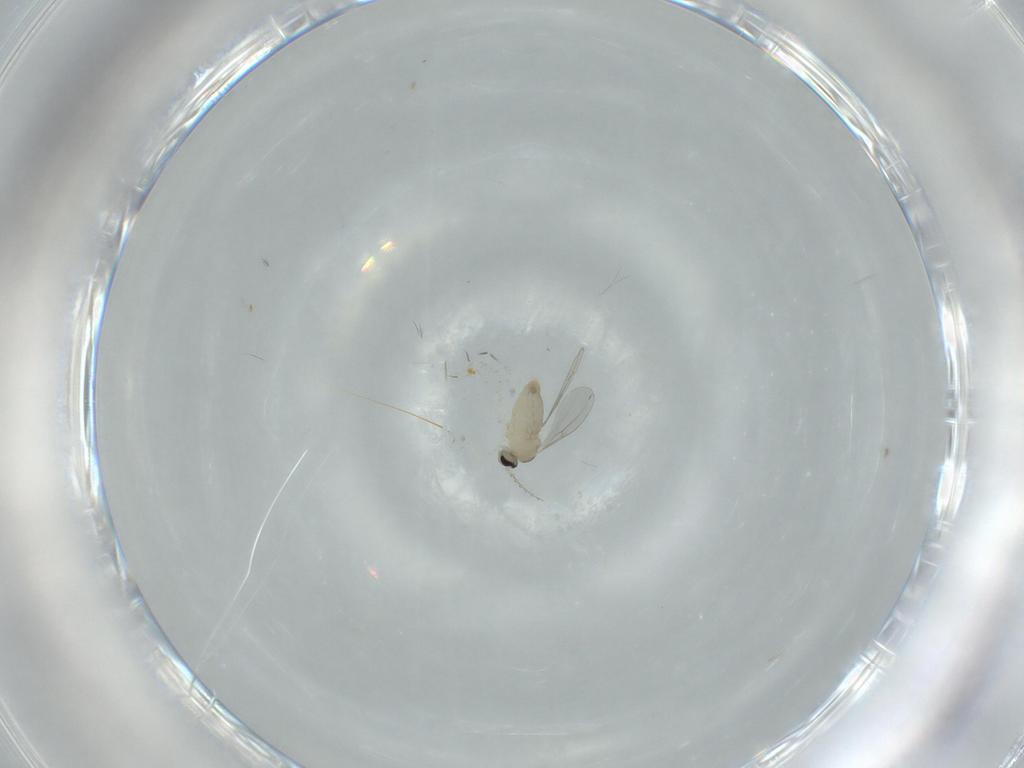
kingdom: Animalia
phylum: Arthropoda
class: Insecta
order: Diptera
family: Cecidomyiidae
